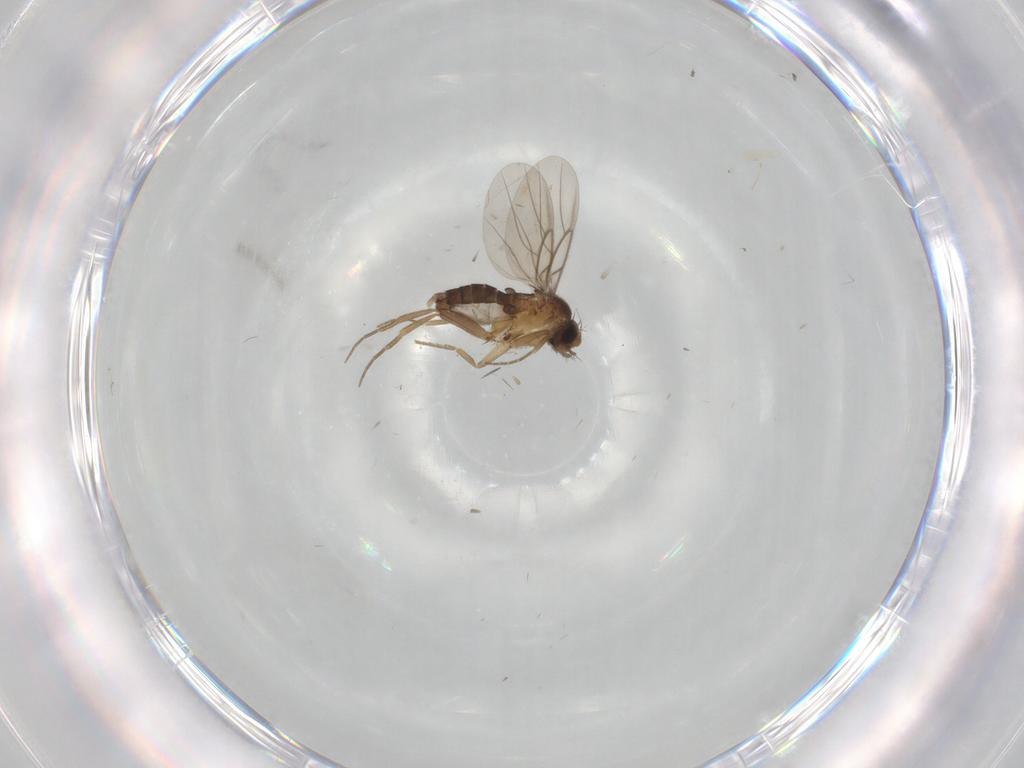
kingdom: Animalia
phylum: Arthropoda
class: Insecta
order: Diptera
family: Phoridae
